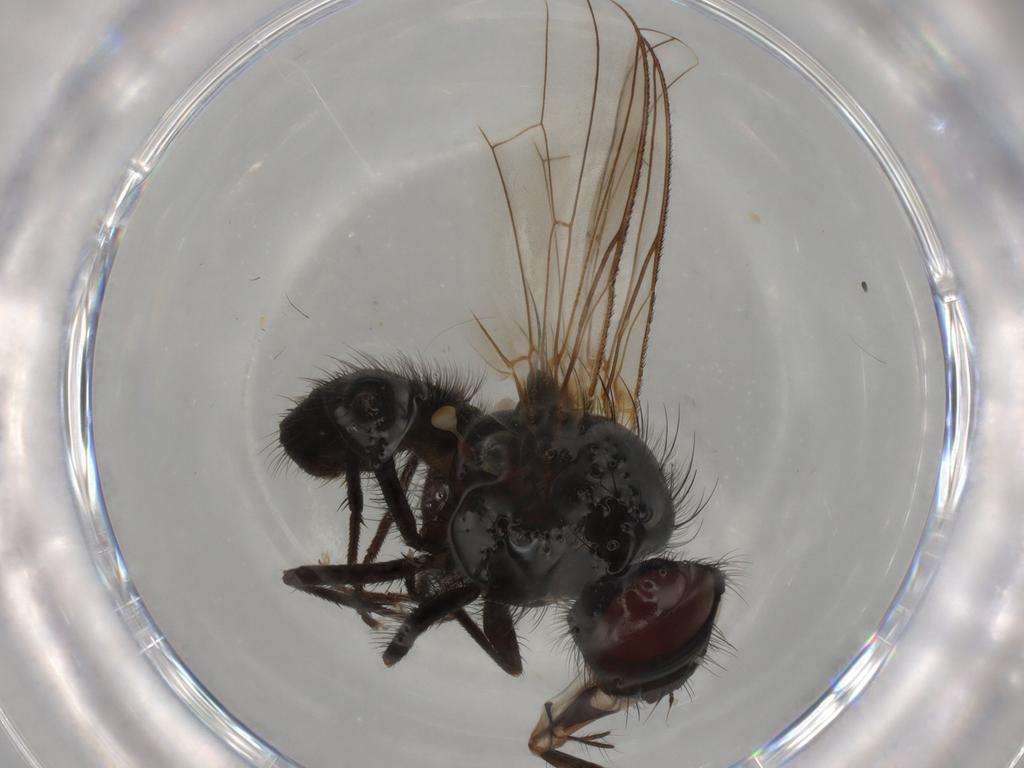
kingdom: Animalia
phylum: Arthropoda
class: Insecta
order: Diptera
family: Anthomyiidae
